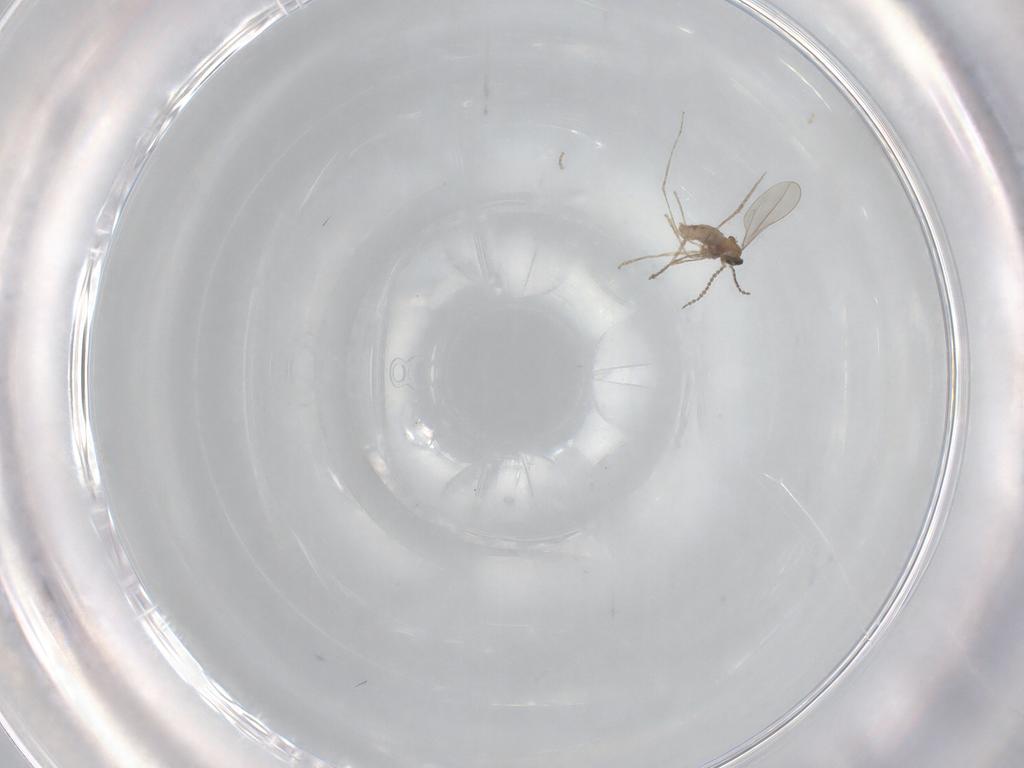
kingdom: Animalia
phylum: Arthropoda
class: Insecta
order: Diptera
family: Cecidomyiidae
